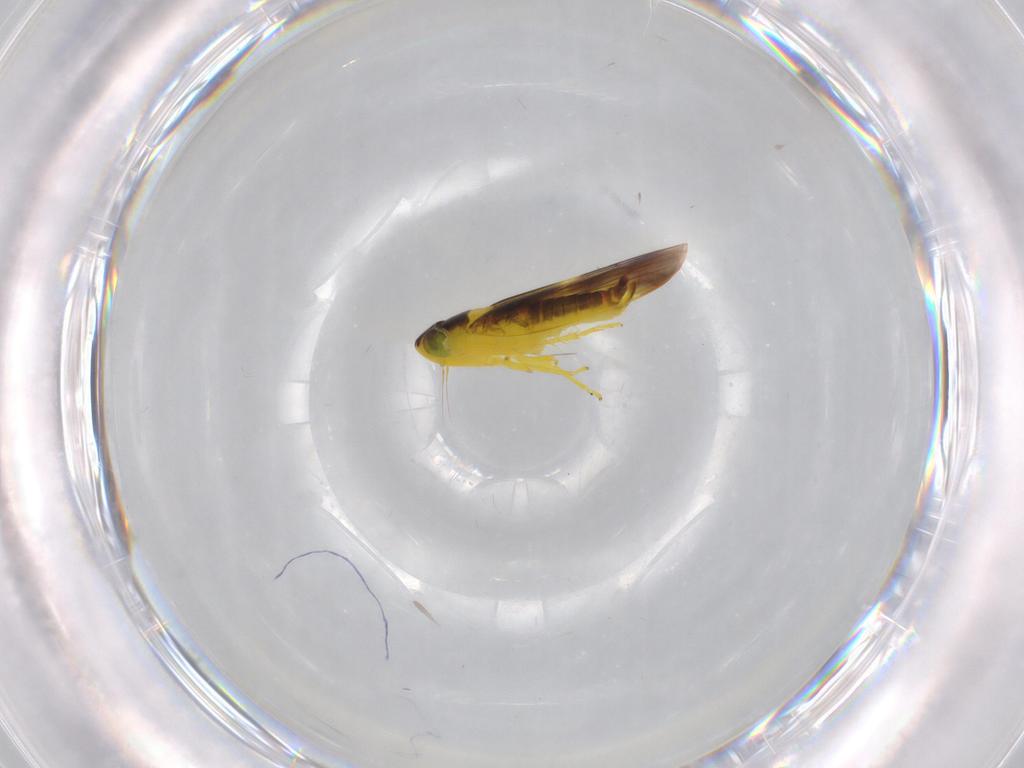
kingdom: Animalia
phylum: Arthropoda
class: Insecta
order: Hemiptera
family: Cicadellidae
